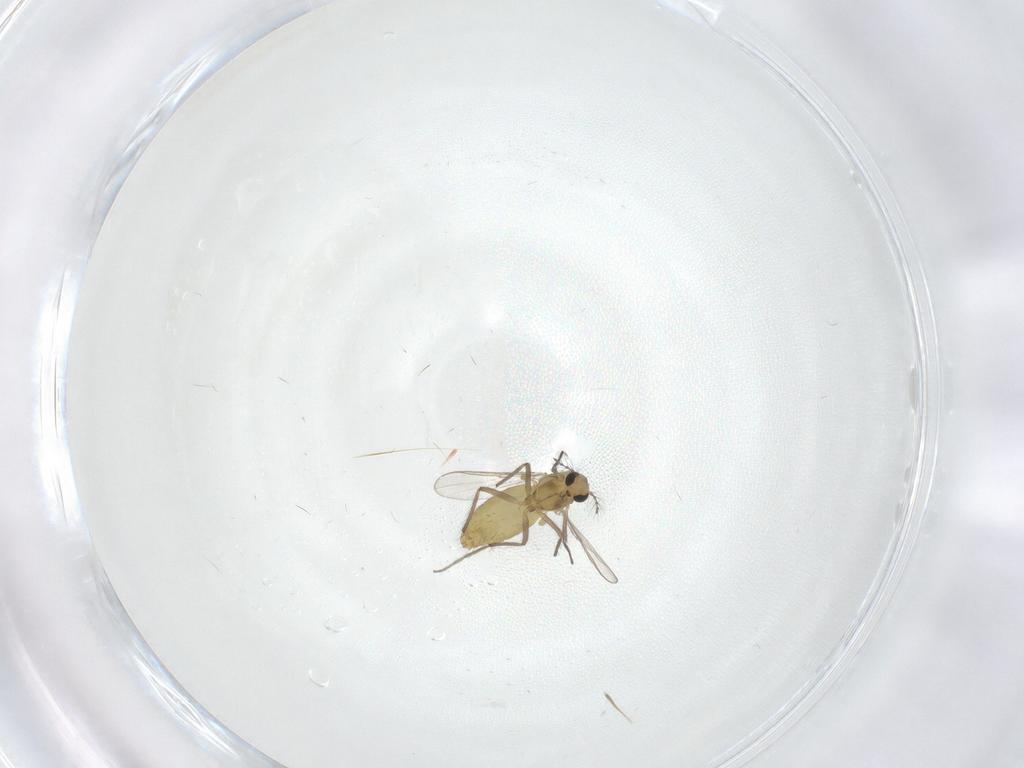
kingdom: Animalia
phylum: Arthropoda
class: Insecta
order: Diptera
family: Chironomidae
